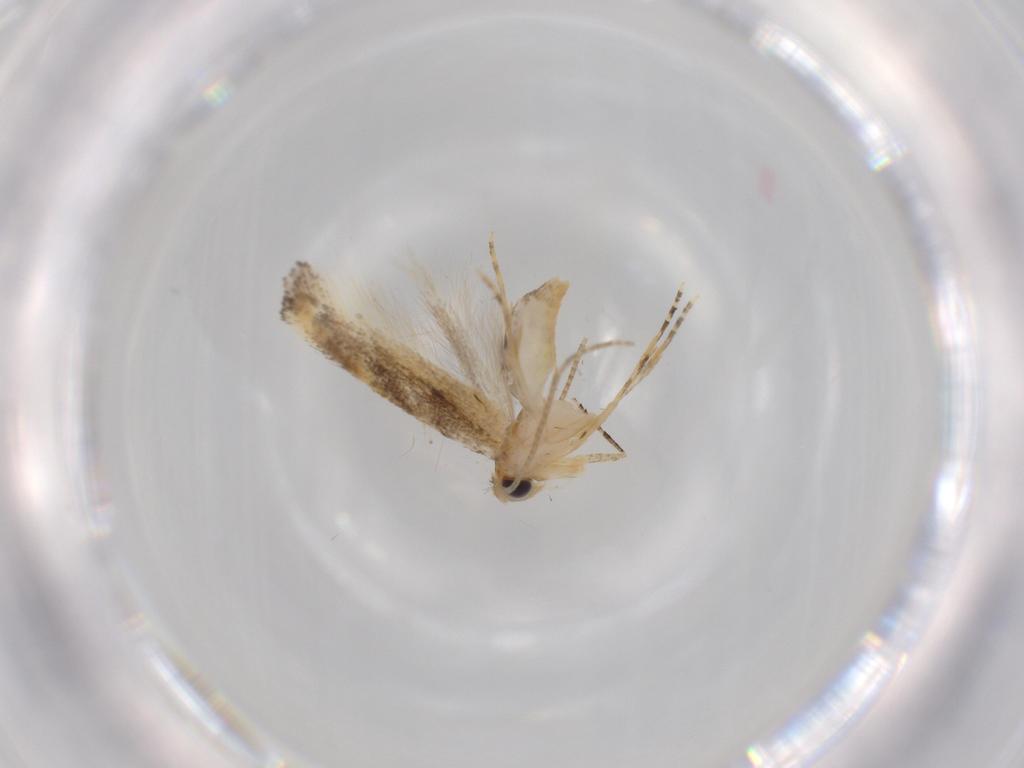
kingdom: Animalia
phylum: Arthropoda
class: Insecta
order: Lepidoptera
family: Bucculatricidae
